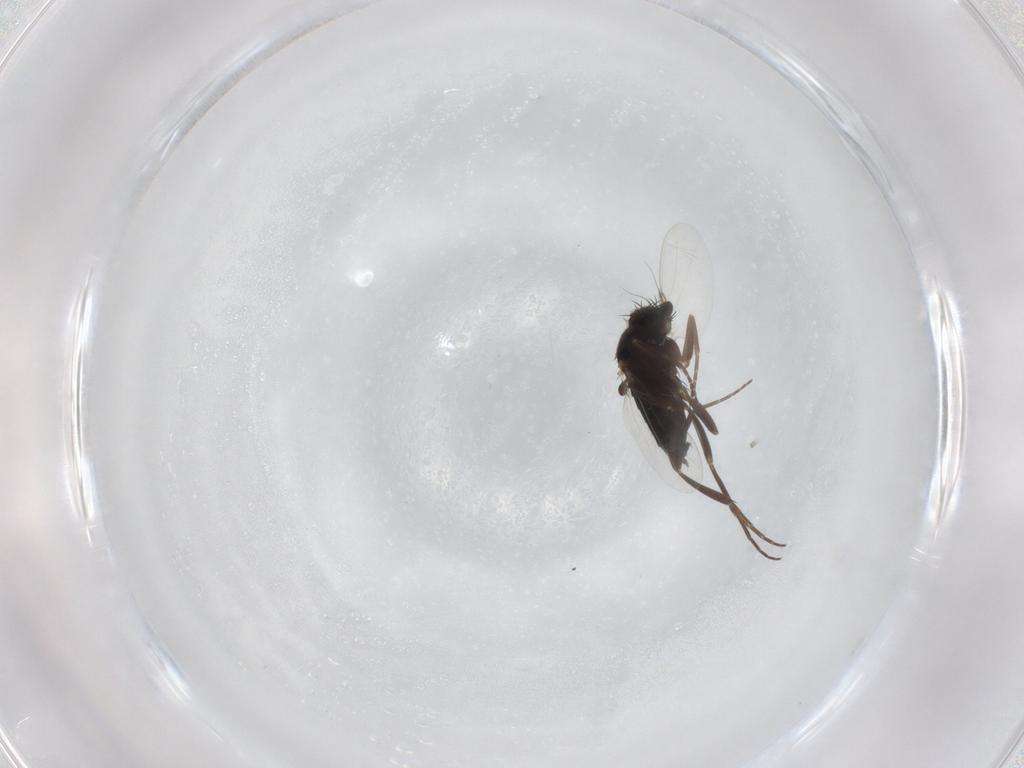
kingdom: Animalia
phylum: Arthropoda
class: Insecta
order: Diptera
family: Phoridae
